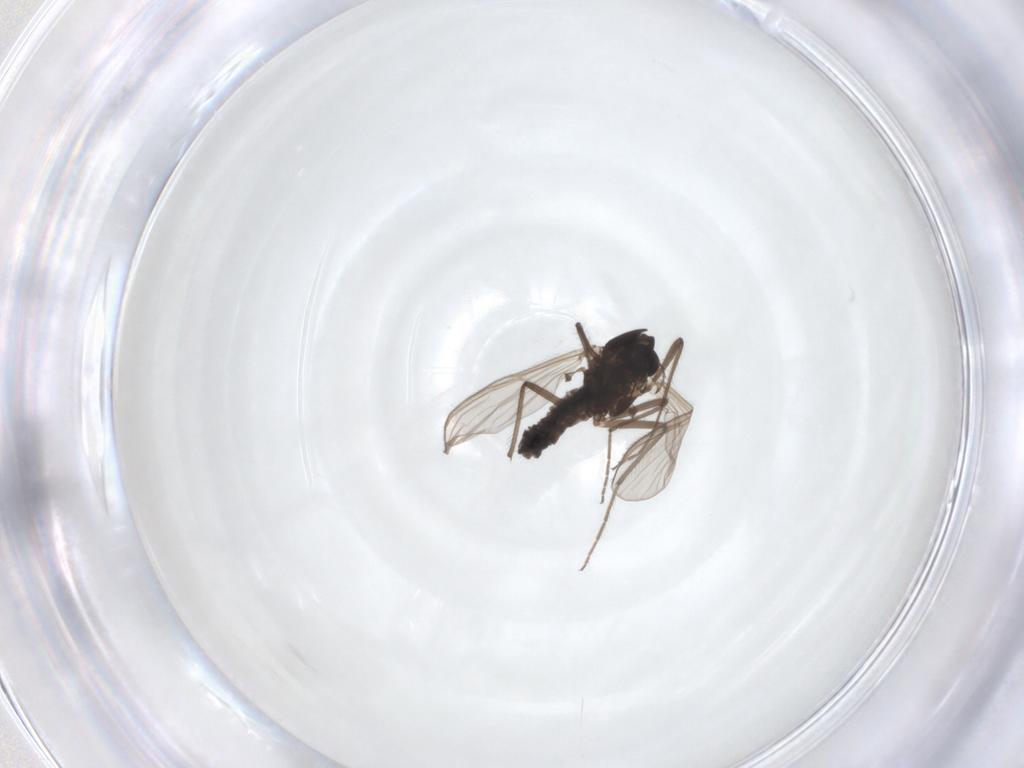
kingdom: Animalia
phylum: Arthropoda
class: Insecta
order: Diptera
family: Chironomidae
